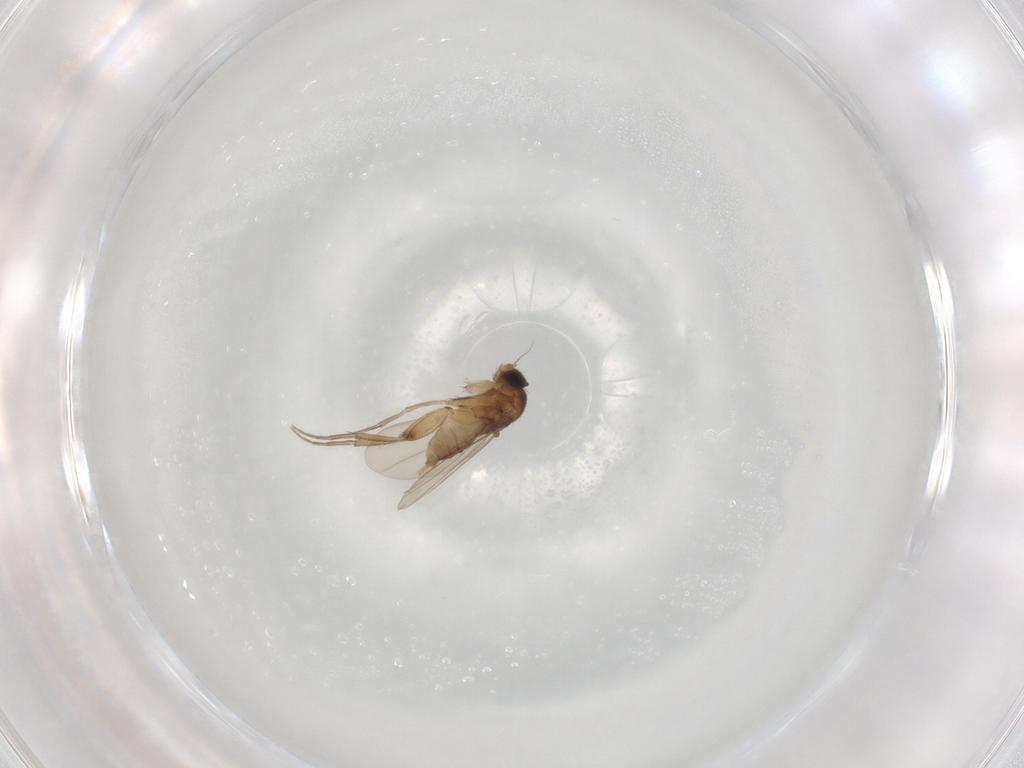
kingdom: Animalia
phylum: Arthropoda
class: Insecta
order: Diptera
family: Phoridae
